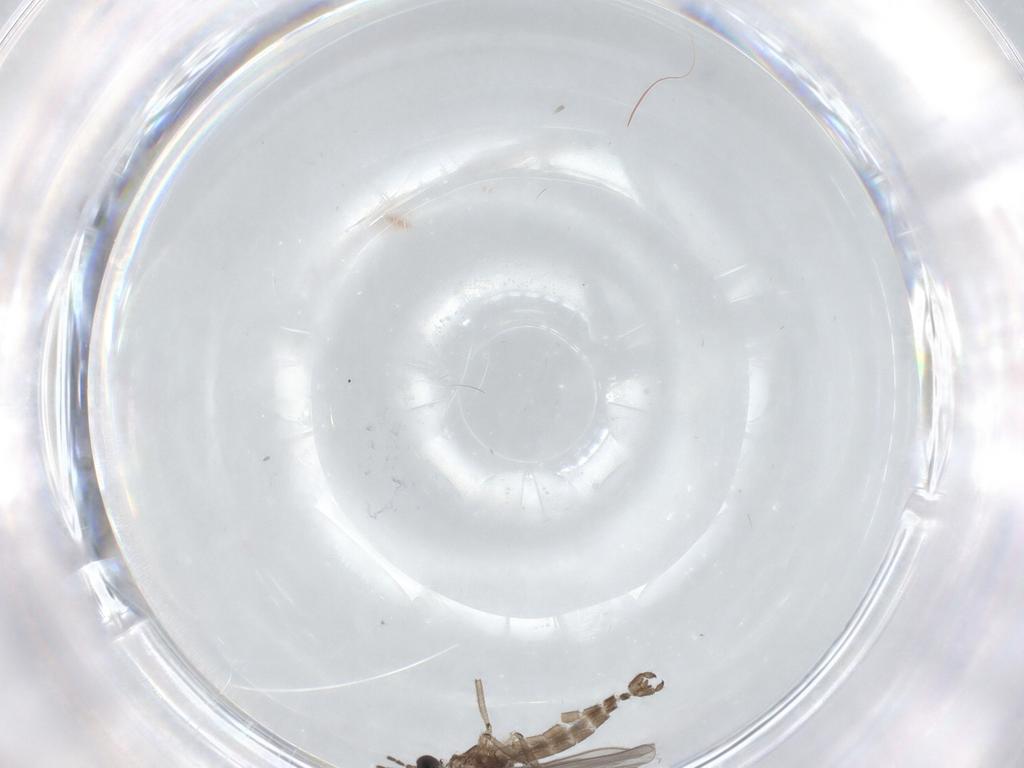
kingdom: Animalia
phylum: Arthropoda
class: Insecta
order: Diptera
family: Sciaridae
